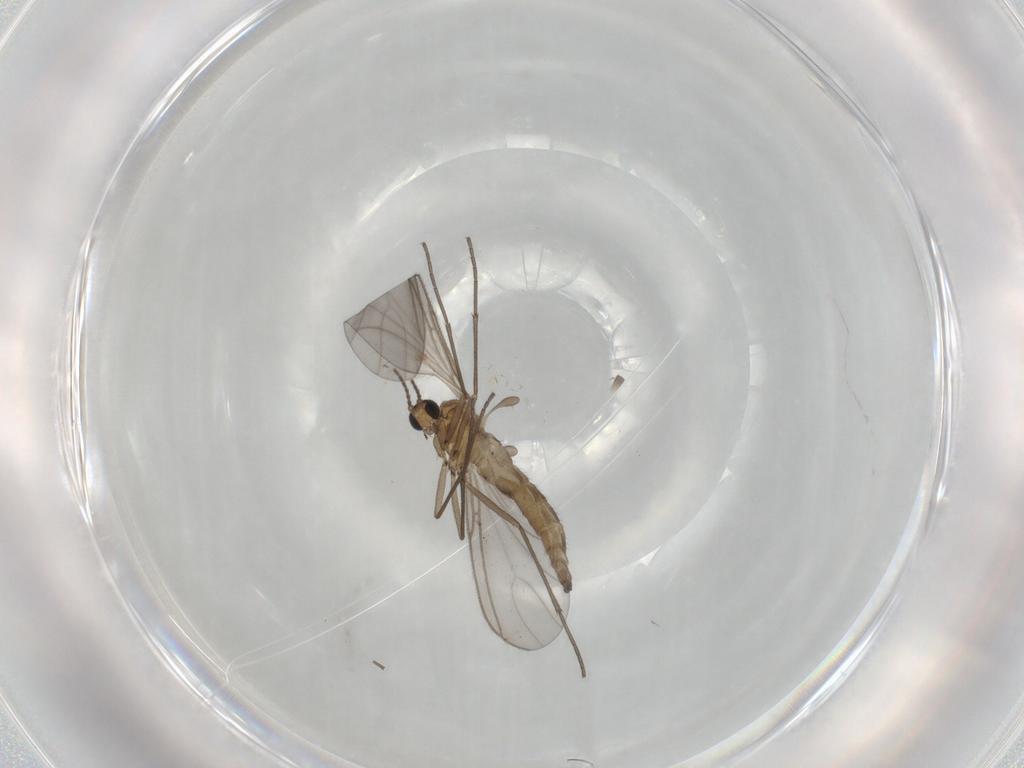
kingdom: Animalia
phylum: Arthropoda
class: Insecta
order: Diptera
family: Sciaridae
